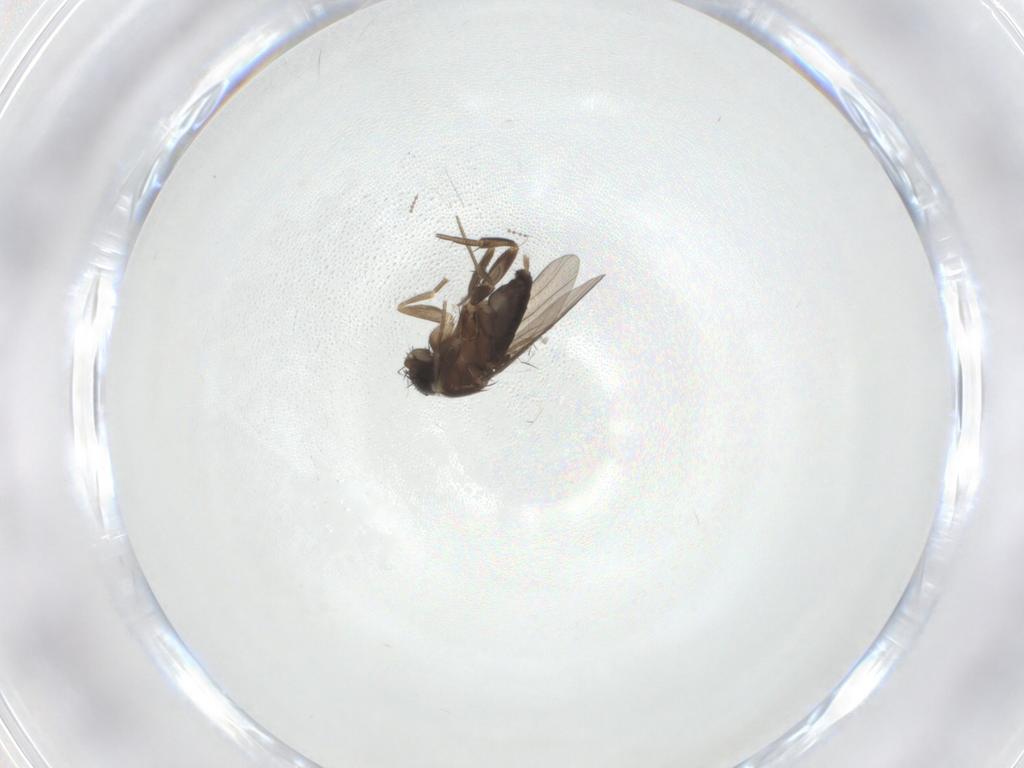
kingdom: Animalia
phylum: Arthropoda
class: Insecta
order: Diptera
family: Phoridae
